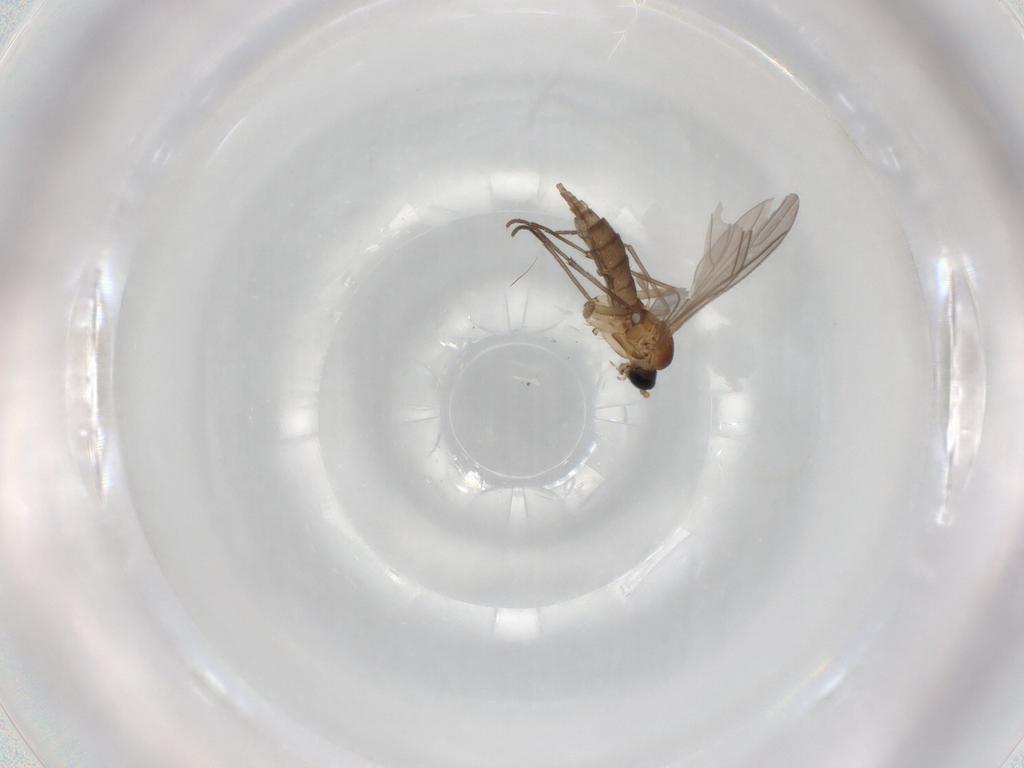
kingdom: Animalia
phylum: Arthropoda
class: Insecta
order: Diptera
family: Sciaridae
